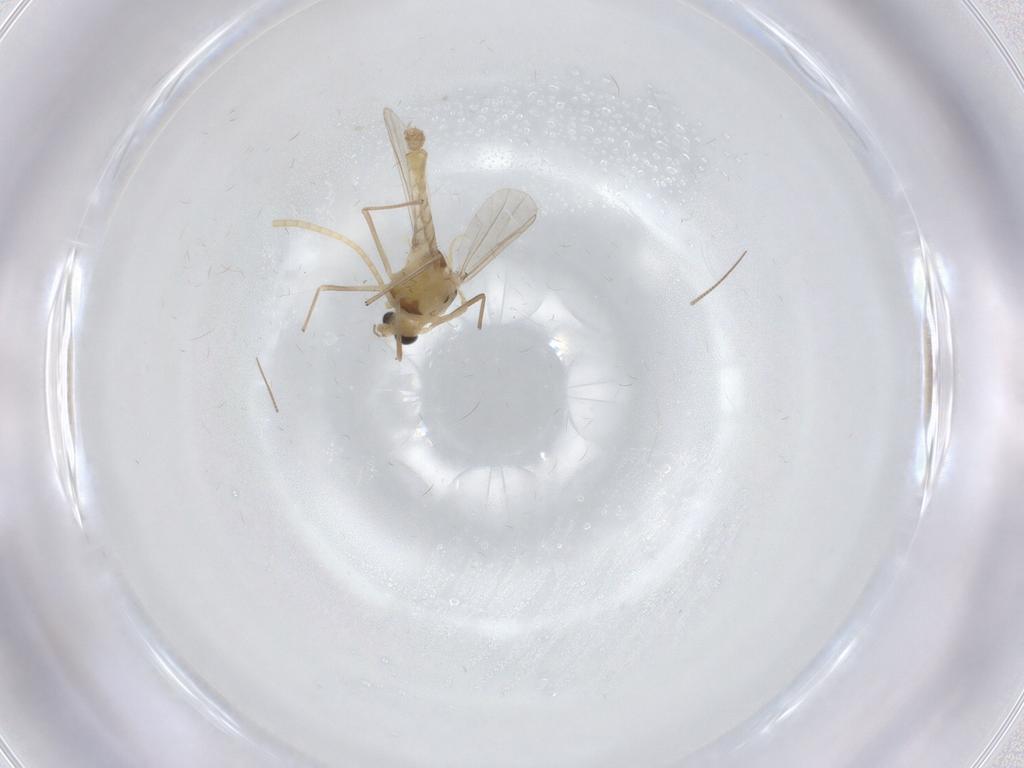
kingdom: Animalia
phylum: Arthropoda
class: Insecta
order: Diptera
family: Chironomidae
